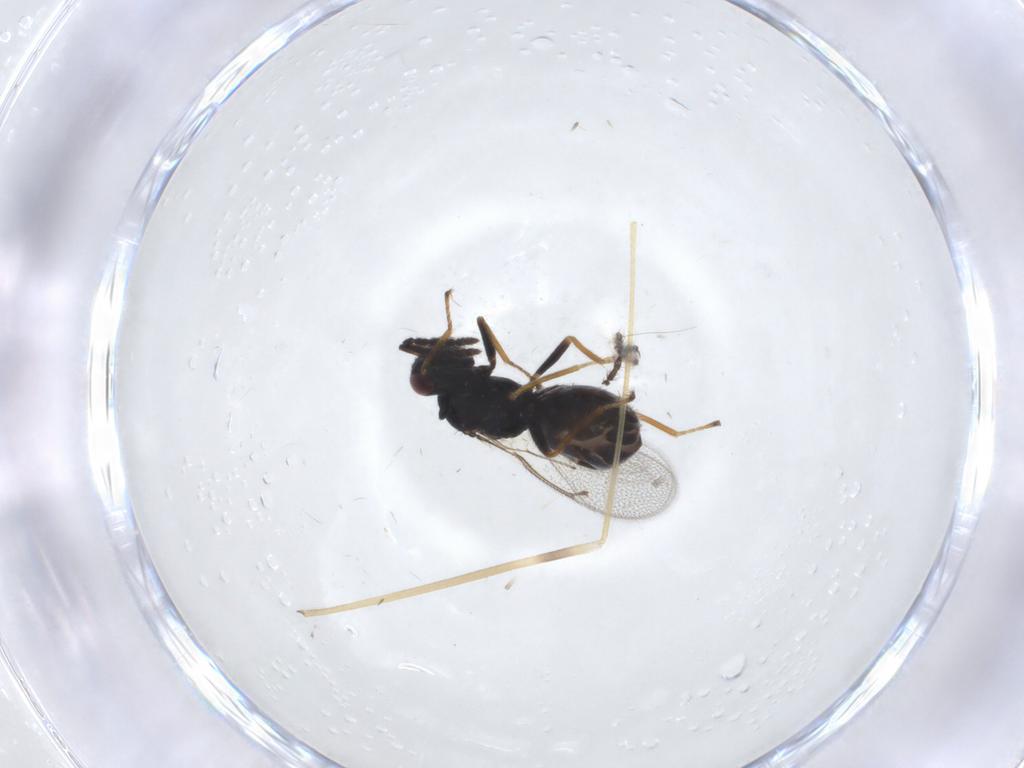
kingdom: Animalia
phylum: Arthropoda
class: Insecta
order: Hymenoptera
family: Eulophidae
